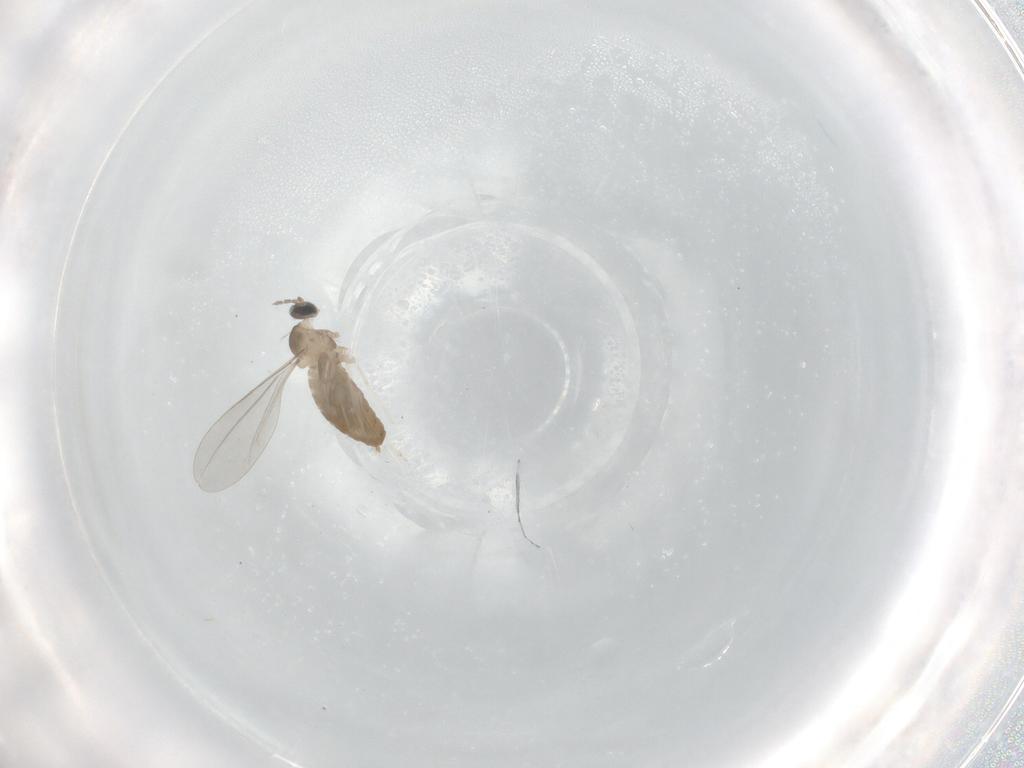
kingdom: Animalia
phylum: Arthropoda
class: Insecta
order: Diptera
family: Cecidomyiidae
